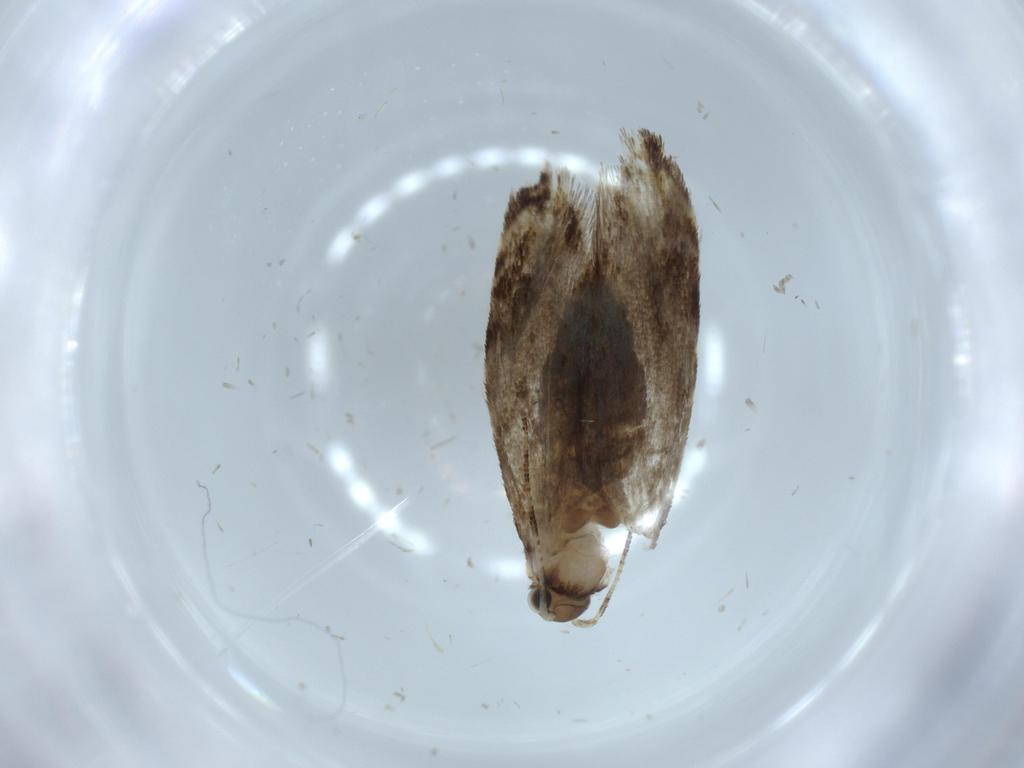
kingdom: Animalia
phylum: Arthropoda
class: Insecta
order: Lepidoptera
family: Tineidae
